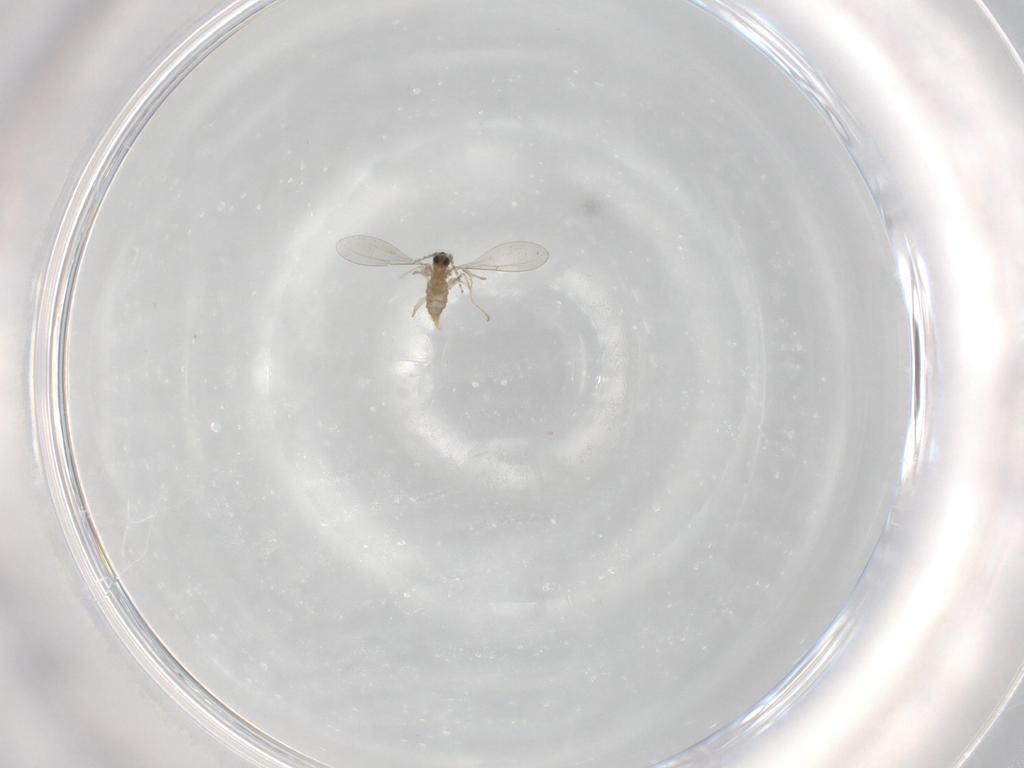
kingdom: Animalia
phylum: Arthropoda
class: Insecta
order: Diptera
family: Cecidomyiidae
